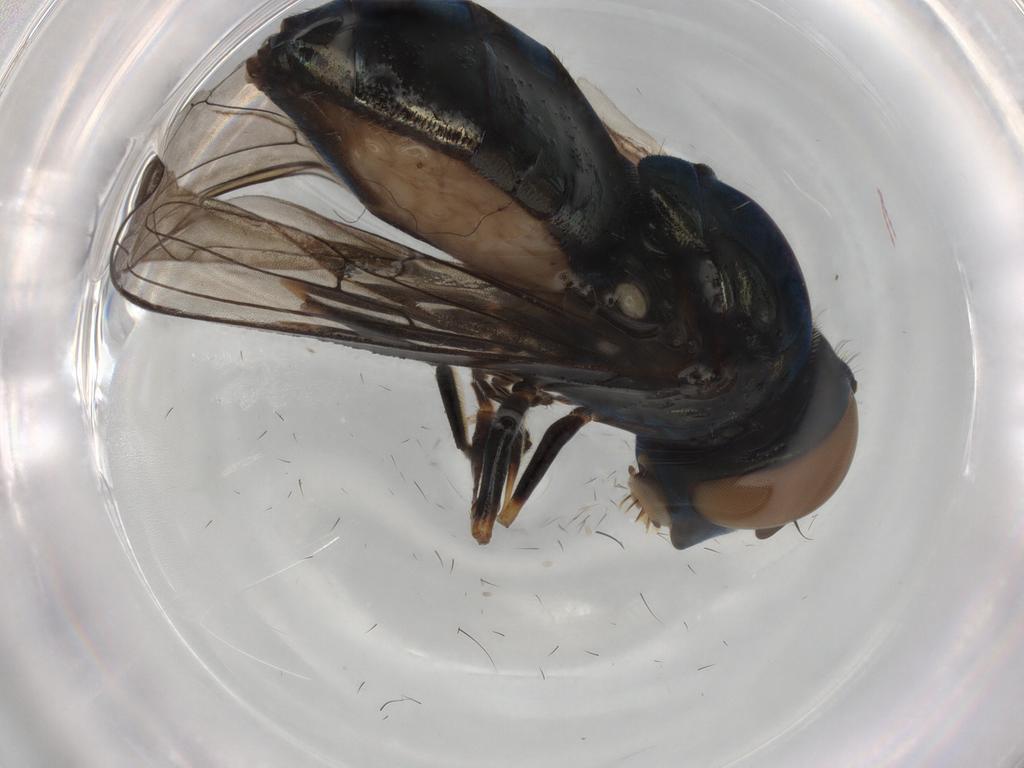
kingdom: Animalia
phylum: Arthropoda
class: Insecta
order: Diptera
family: Syrphidae
